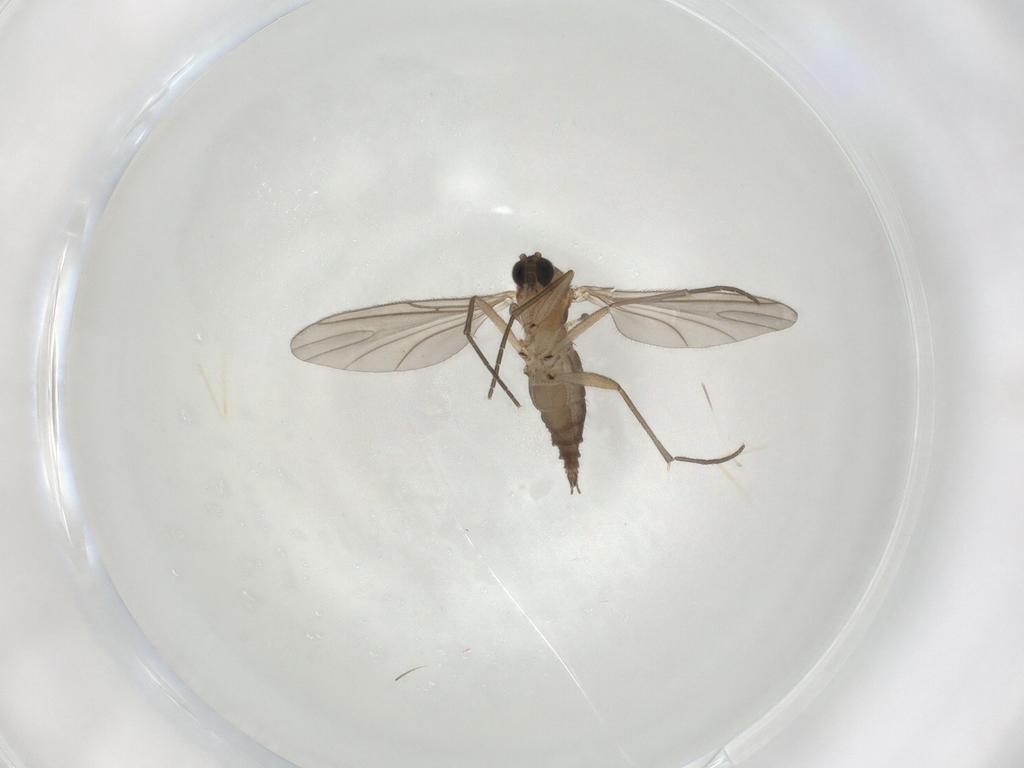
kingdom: Animalia
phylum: Arthropoda
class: Insecta
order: Diptera
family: Cecidomyiidae
